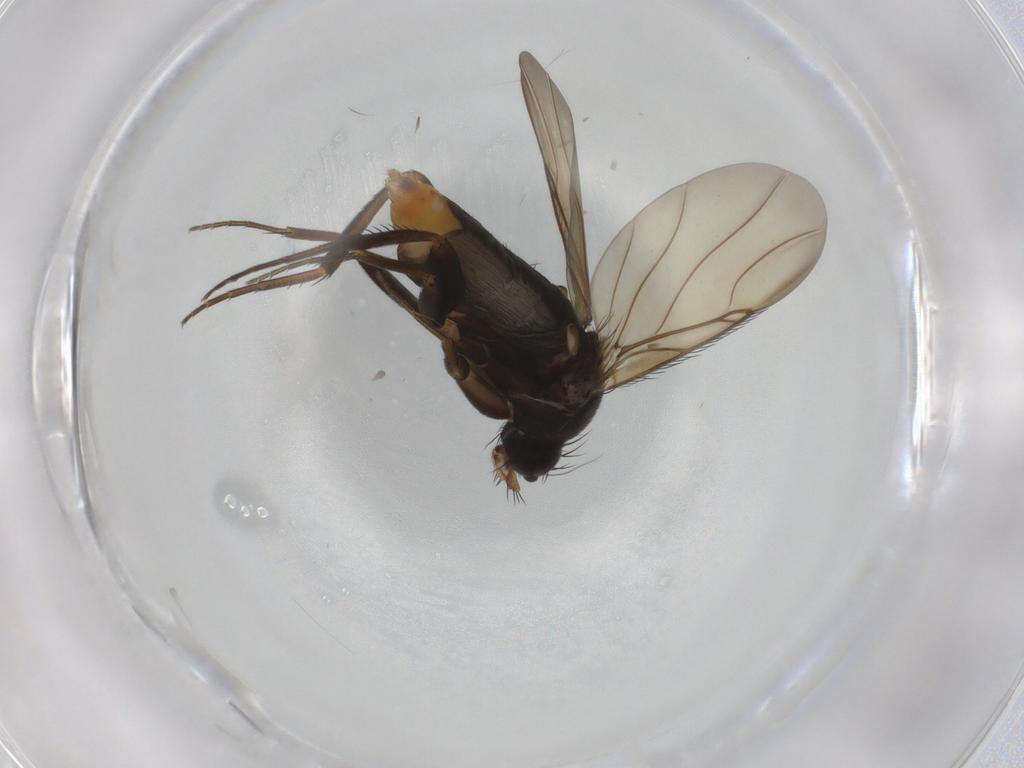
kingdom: Animalia
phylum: Arthropoda
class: Insecta
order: Diptera
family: Phoridae
